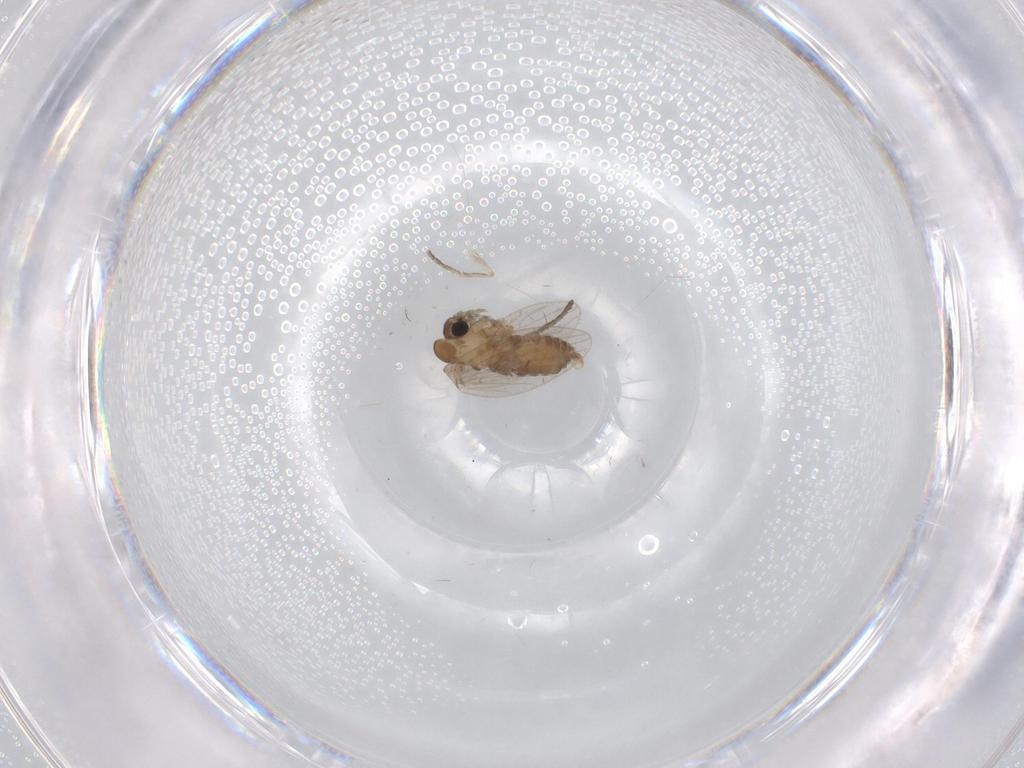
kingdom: Animalia
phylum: Arthropoda
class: Insecta
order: Diptera
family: Psychodidae
